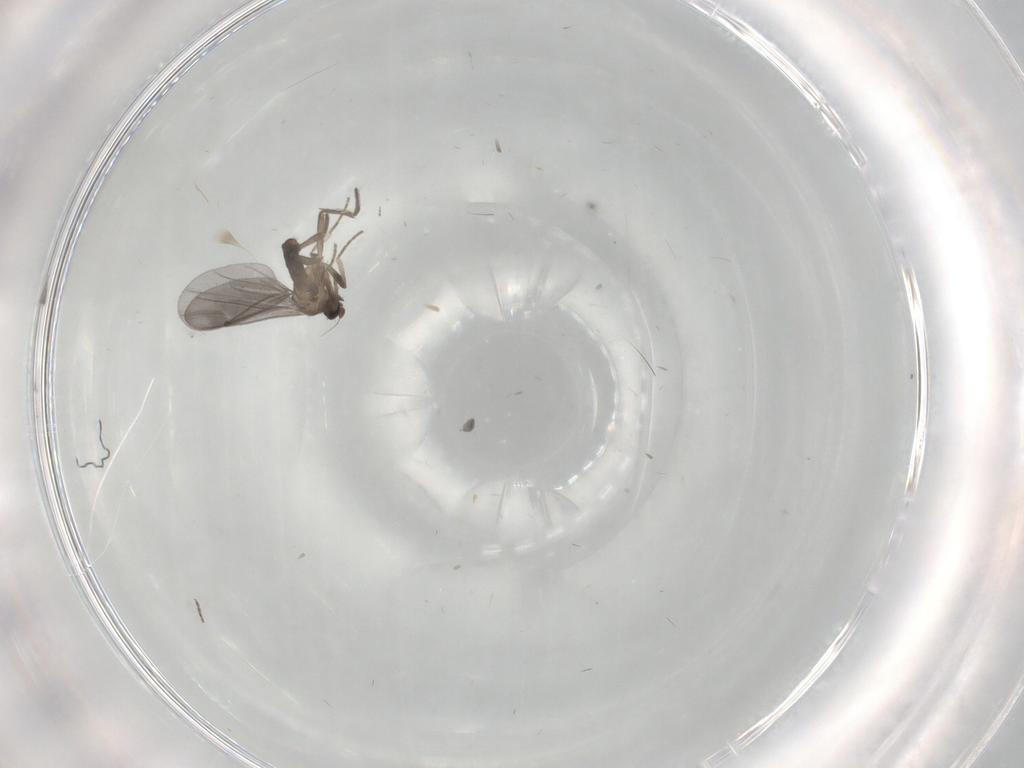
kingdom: Animalia
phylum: Arthropoda
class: Insecta
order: Diptera
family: Phoridae
